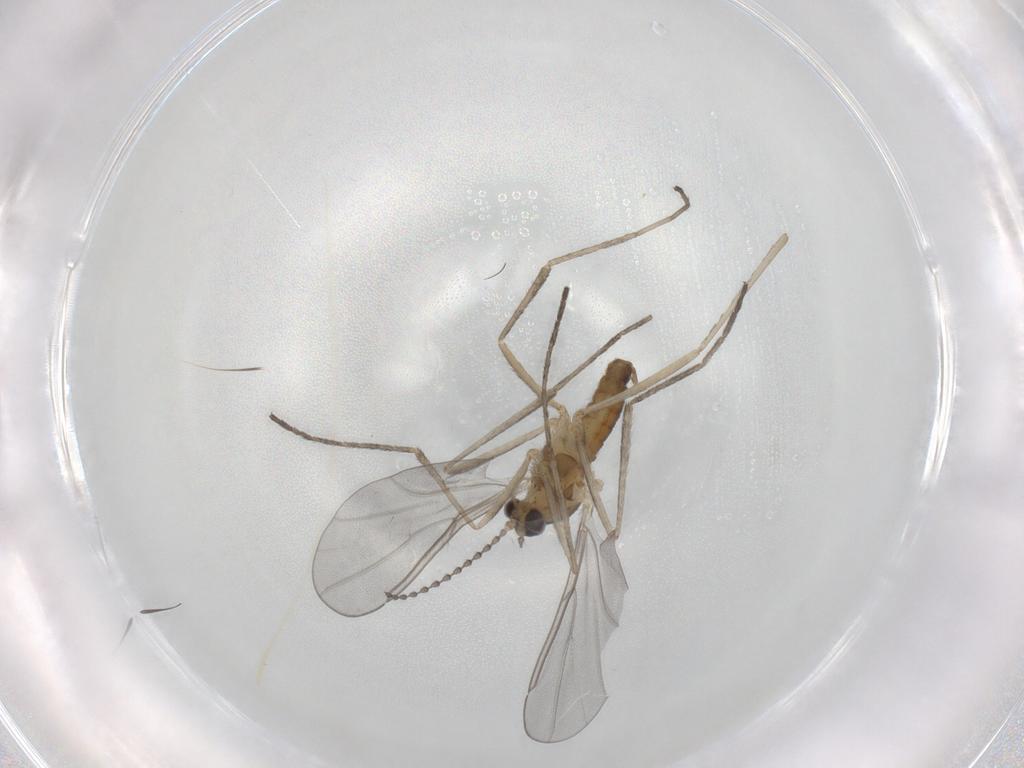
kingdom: Animalia
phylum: Arthropoda
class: Insecta
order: Diptera
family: Cecidomyiidae
